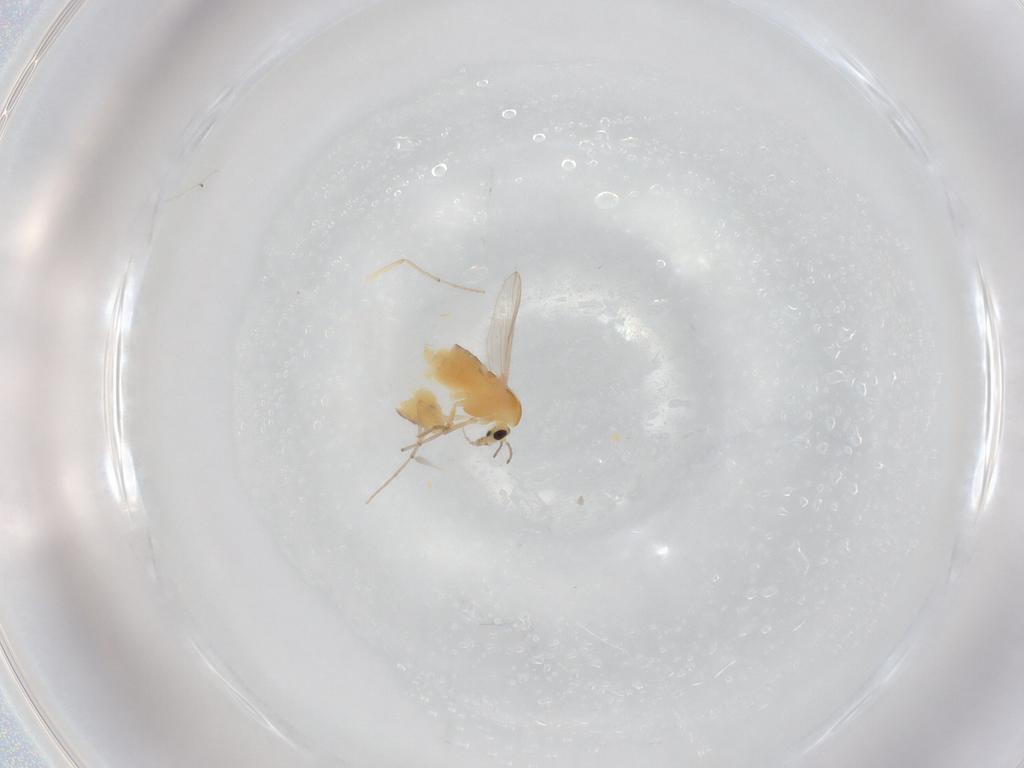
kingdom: Animalia
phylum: Arthropoda
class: Insecta
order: Diptera
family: Chironomidae
